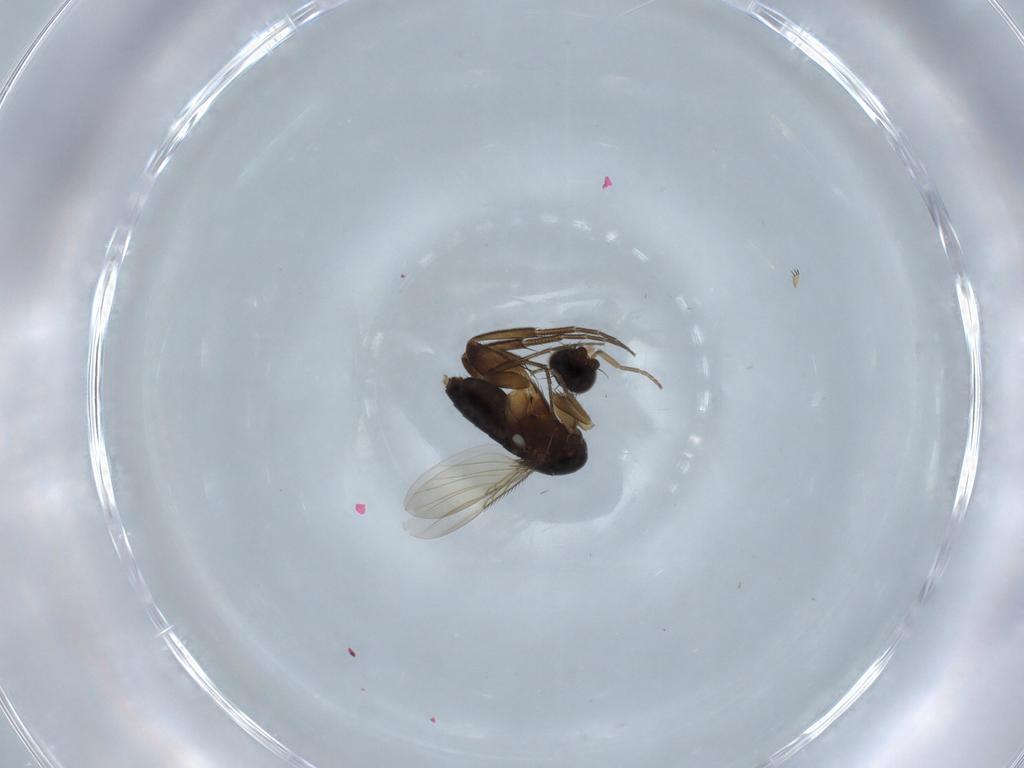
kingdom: Animalia
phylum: Arthropoda
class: Insecta
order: Diptera
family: Phoridae
